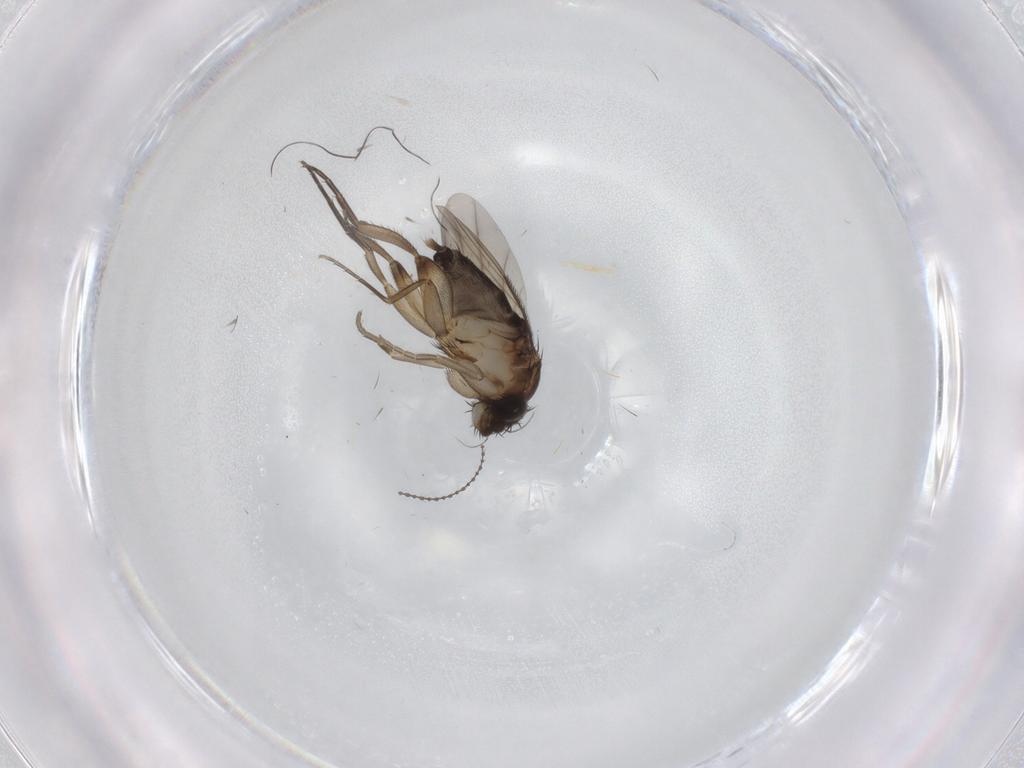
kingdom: Animalia
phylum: Arthropoda
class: Insecta
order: Diptera
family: Phoridae
